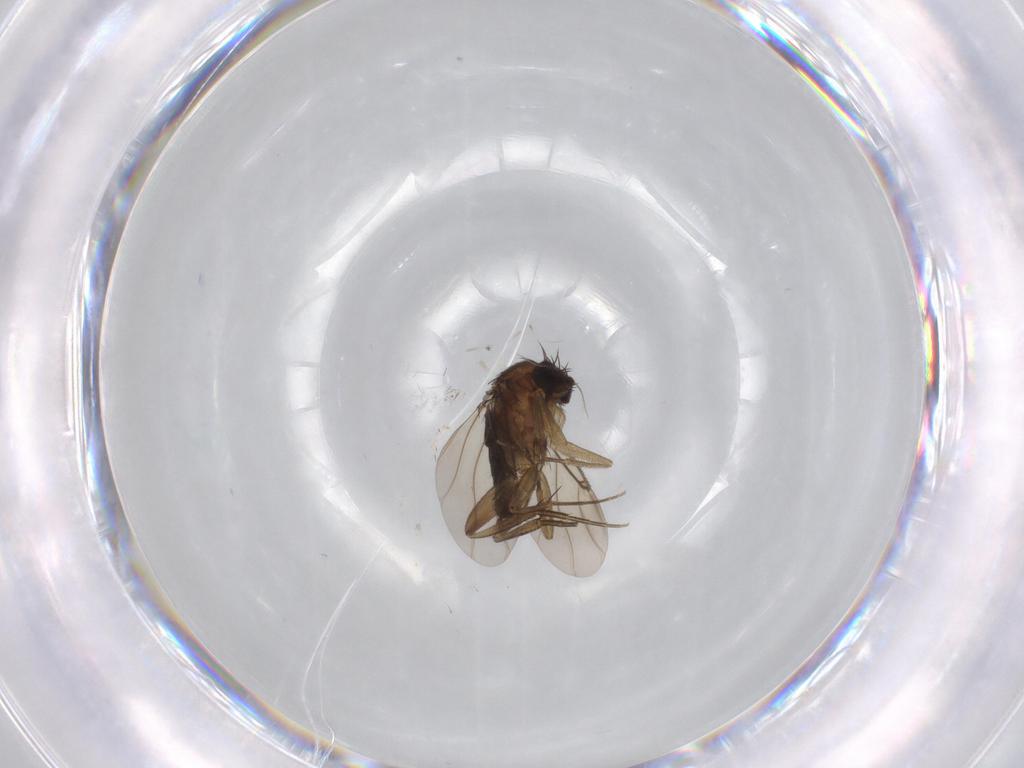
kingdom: Animalia
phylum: Arthropoda
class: Insecta
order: Diptera
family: Phoridae
